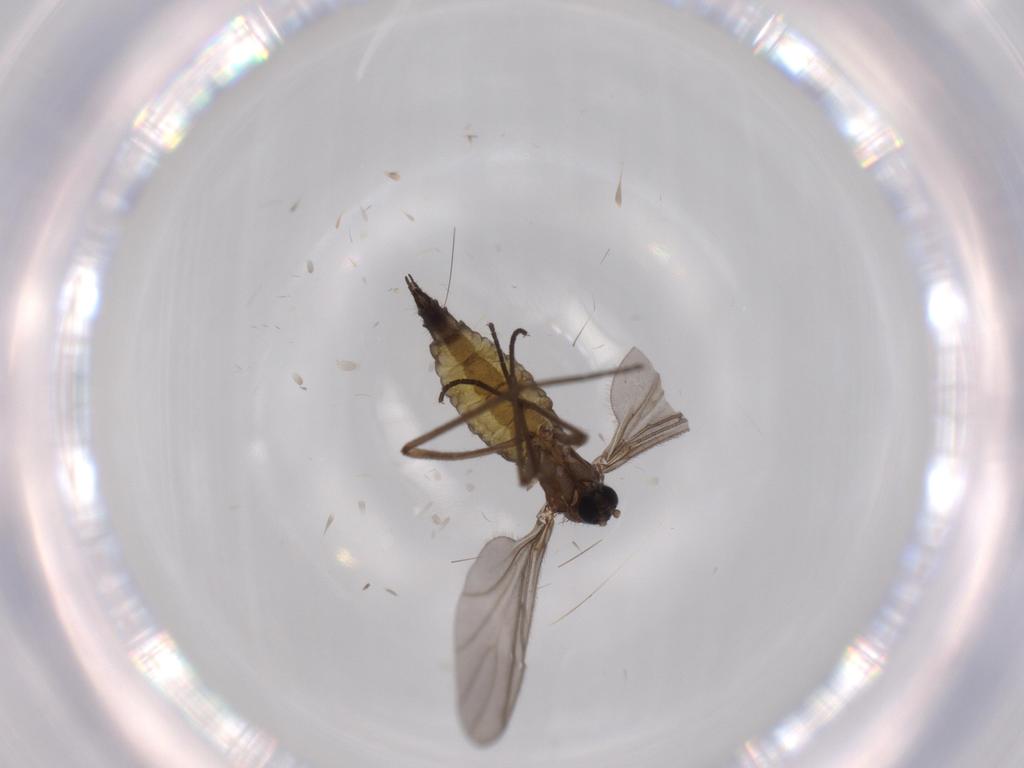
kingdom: Animalia
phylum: Arthropoda
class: Insecta
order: Diptera
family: Sciaridae
